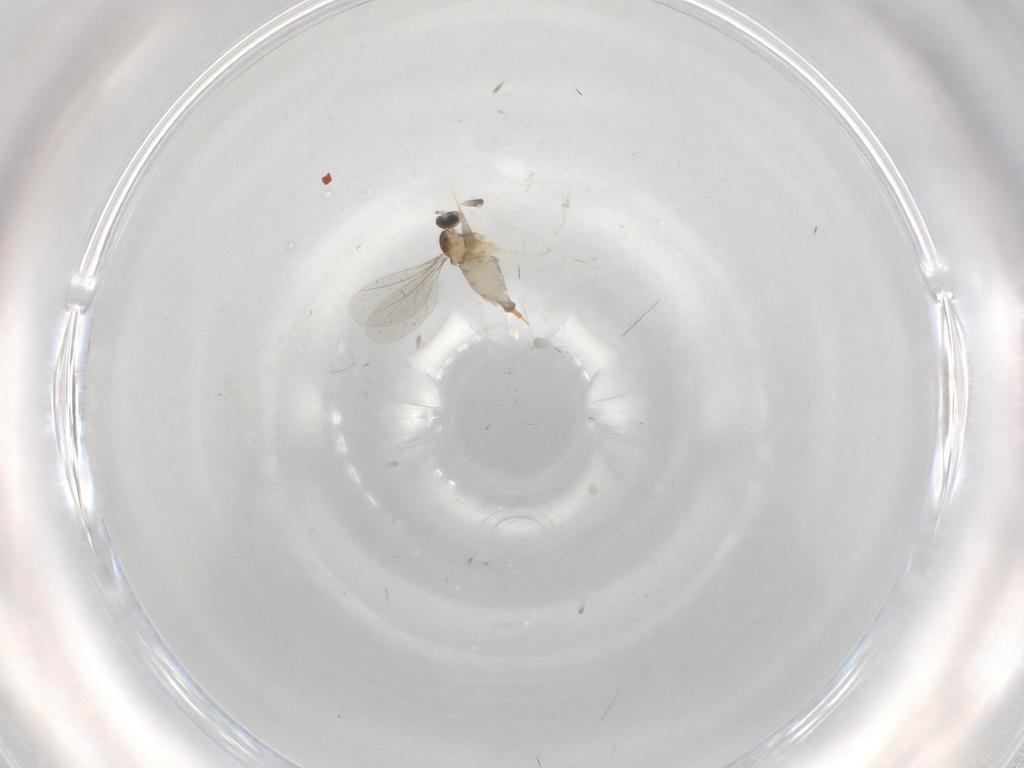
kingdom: Animalia
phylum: Arthropoda
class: Insecta
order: Diptera
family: Cecidomyiidae
